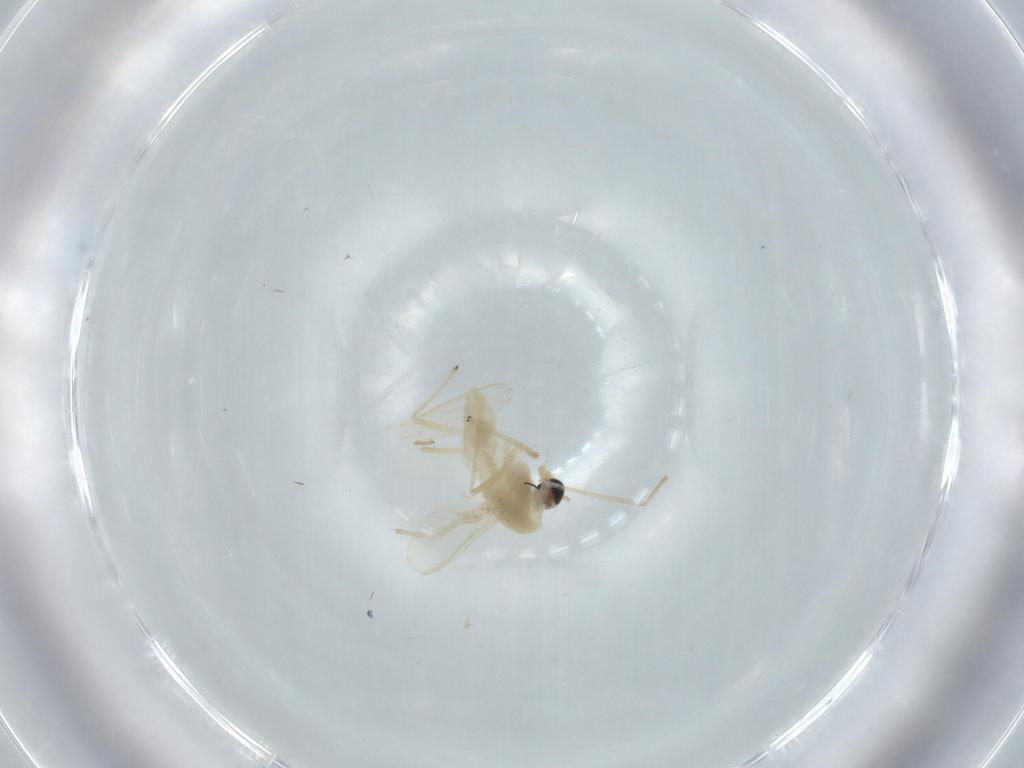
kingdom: Animalia
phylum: Arthropoda
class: Insecta
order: Diptera
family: Chironomidae
